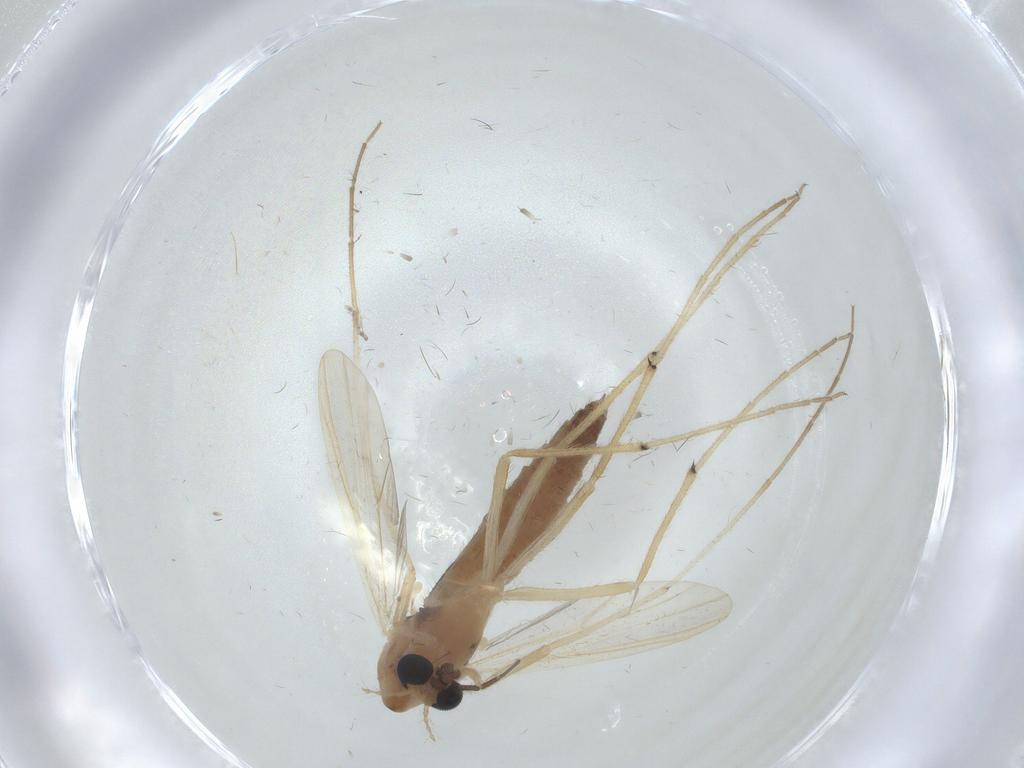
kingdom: Animalia
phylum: Arthropoda
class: Insecta
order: Diptera
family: Chironomidae
